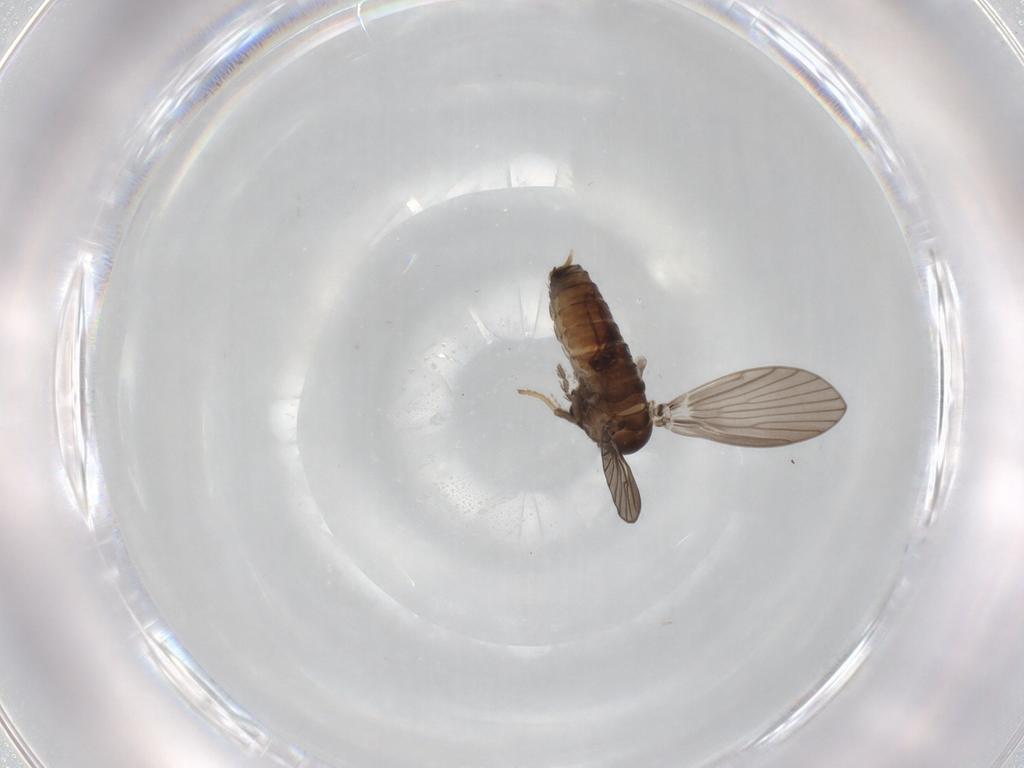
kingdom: Animalia
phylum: Arthropoda
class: Insecta
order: Diptera
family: Psychodidae
